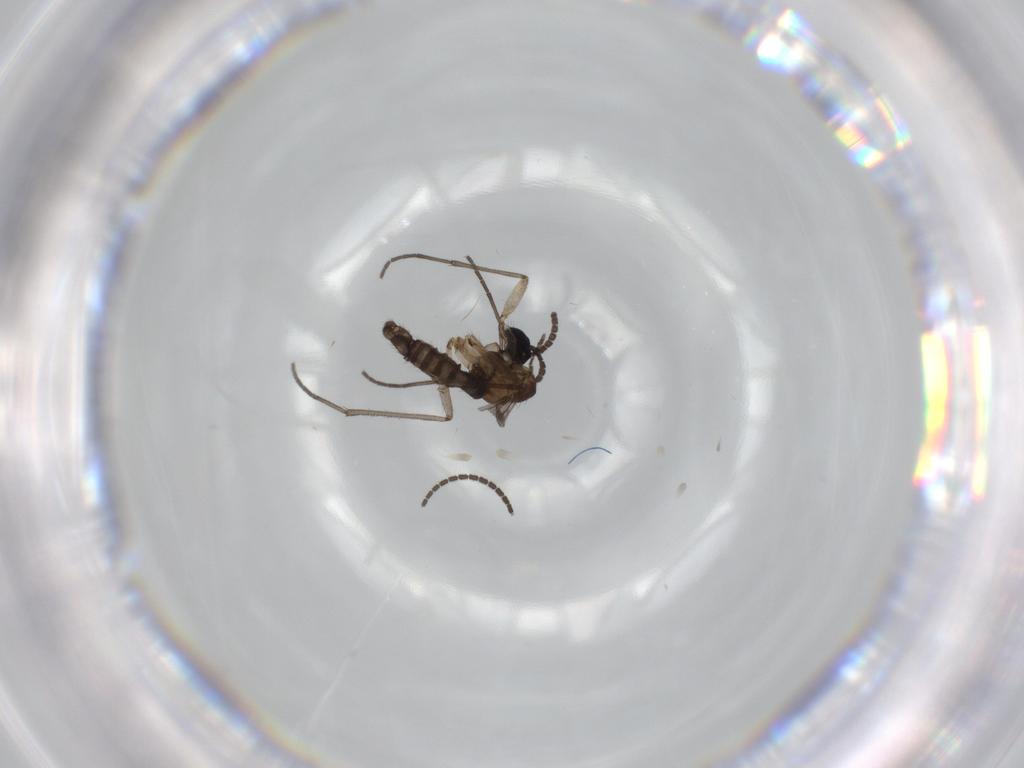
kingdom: Animalia
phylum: Arthropoda
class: Insecta
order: Diptera
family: Sciaridae
